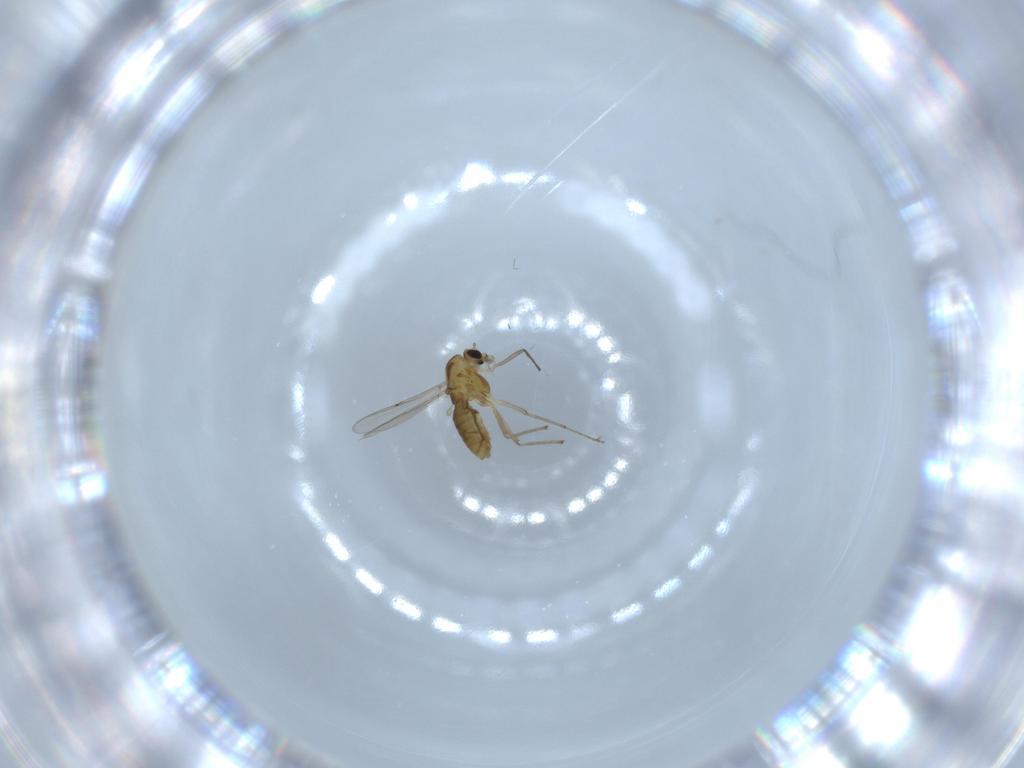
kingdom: Animalia
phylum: Arthropoda
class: Insecta
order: Diptera
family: Chironomidae
